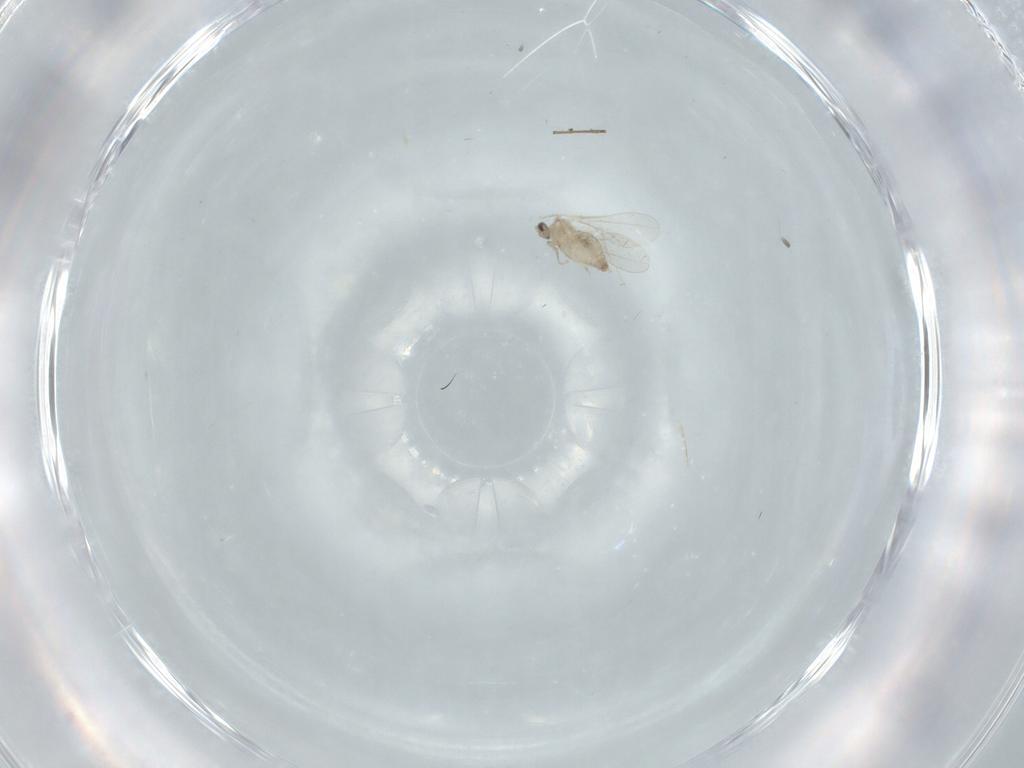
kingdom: Animalia
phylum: Arthropoda
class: Insecta
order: Diptera
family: Cecidomyiidae
